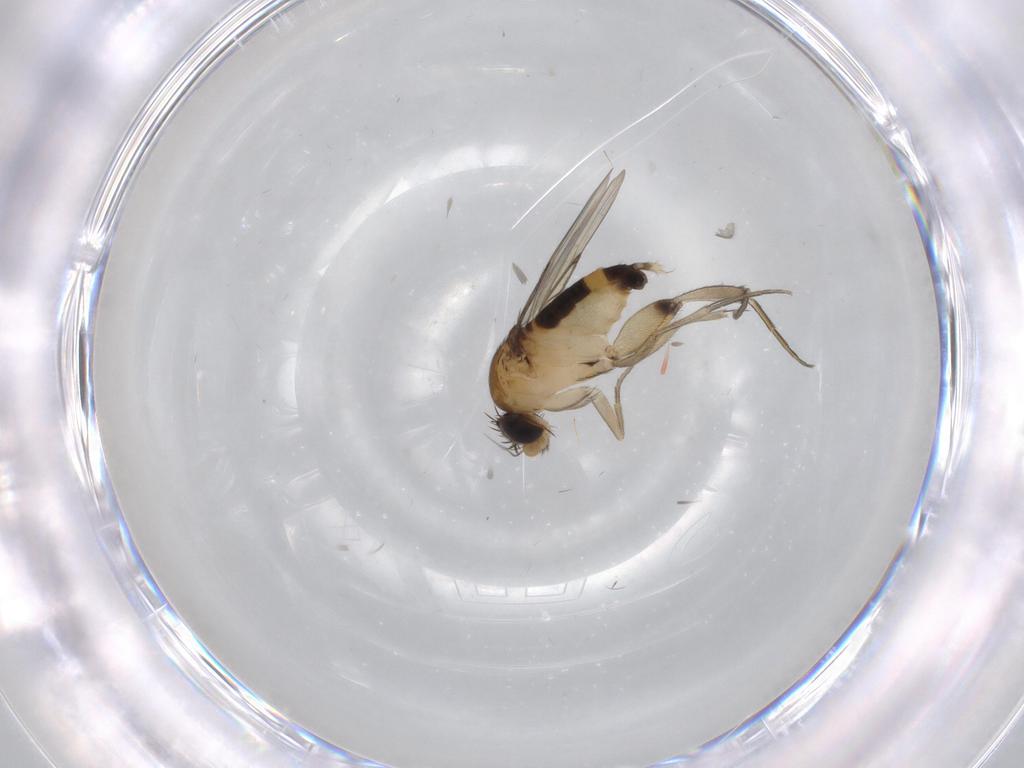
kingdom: Animalia
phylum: Arthropoda
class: Insecta
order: Diptera
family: Phoridae
